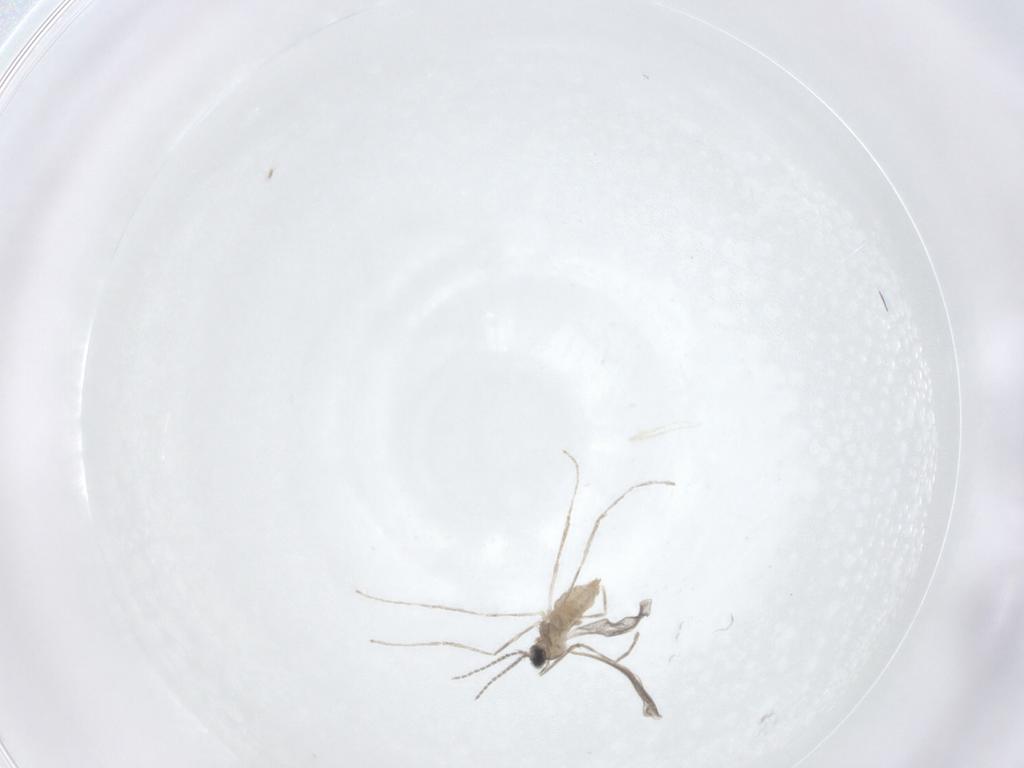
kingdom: Animalia
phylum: Arthropoda
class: Insecta
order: Diptera
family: Cecidomyiidae
